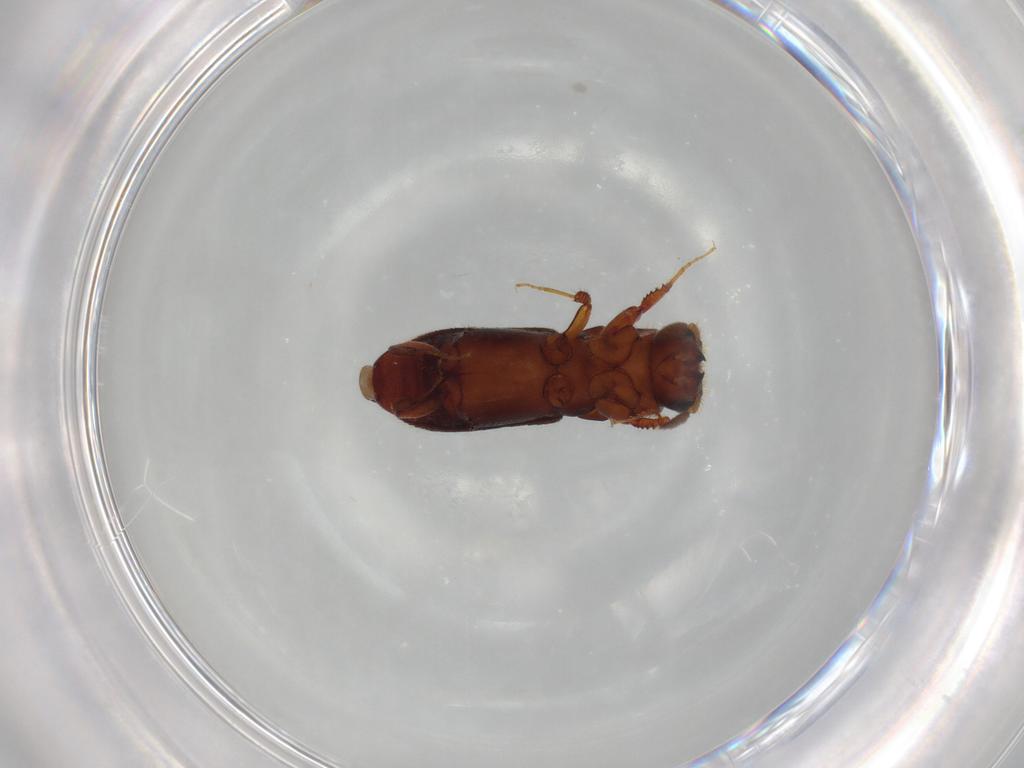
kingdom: Animalia
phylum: Arthropoda
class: Insecta
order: Coleoptera
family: Curculionidae
